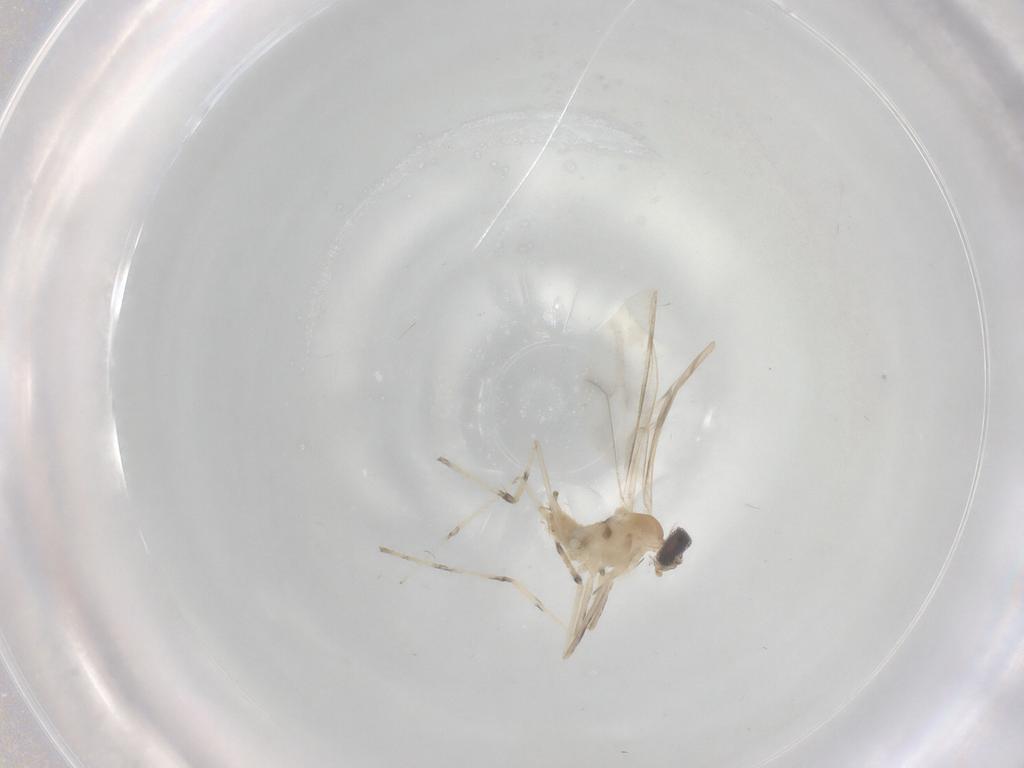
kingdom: Animalia
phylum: Arthropoda
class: Insecta
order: Diptera
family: Cecidomyiidae
